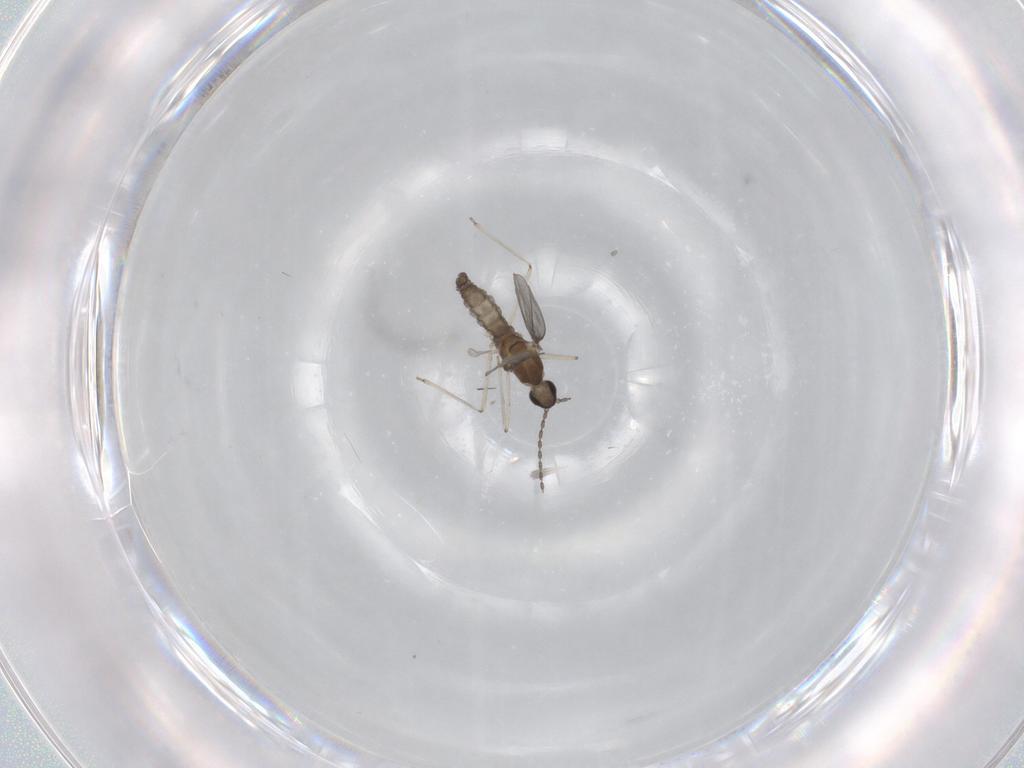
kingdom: Animalia
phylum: Arthropoda
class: Insecta
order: Diptera
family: Cecidomyiidae
